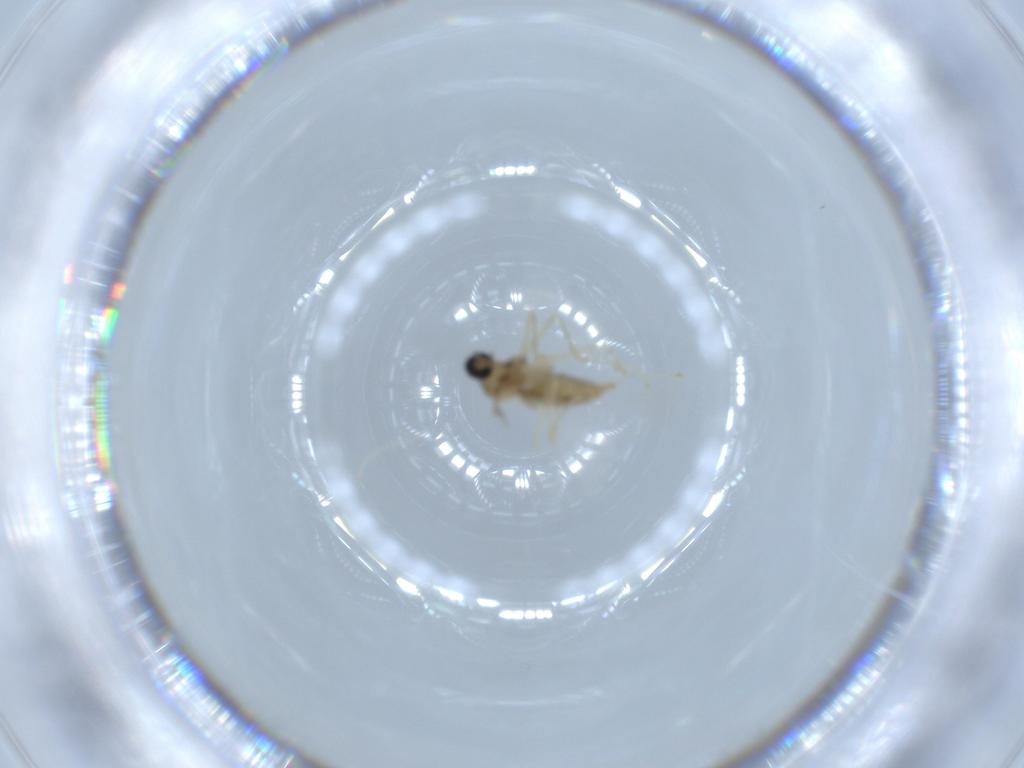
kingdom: Animalia
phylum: Arthropoda
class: Insecta
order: Diptera
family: Cecidomyiidae
